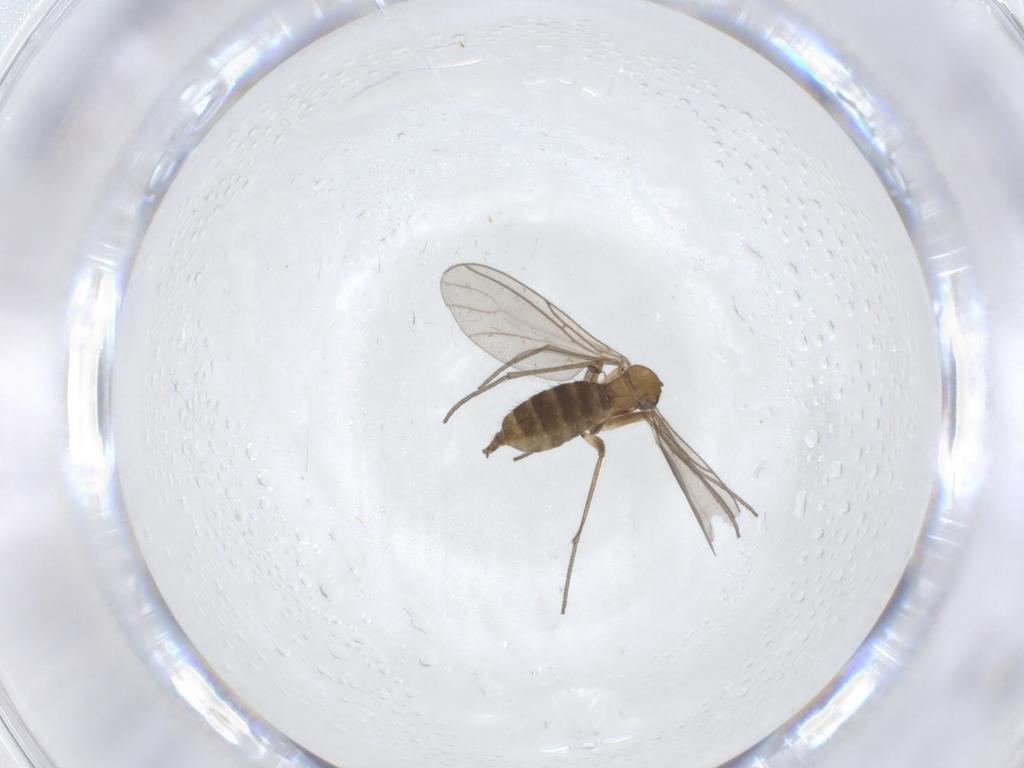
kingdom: Animalia
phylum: Arthropoda
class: Insecta
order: Diptera
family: Sciaridae
